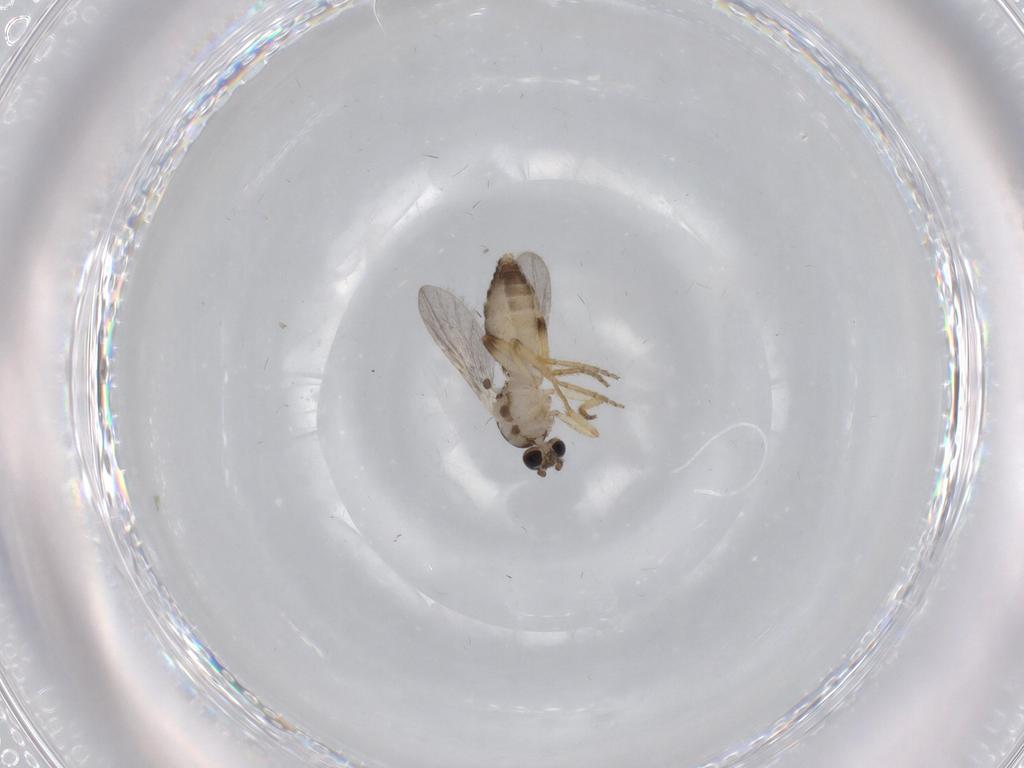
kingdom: Animalia
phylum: Arthropoda
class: Insecta
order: Diptera
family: Ceratopogonidae
